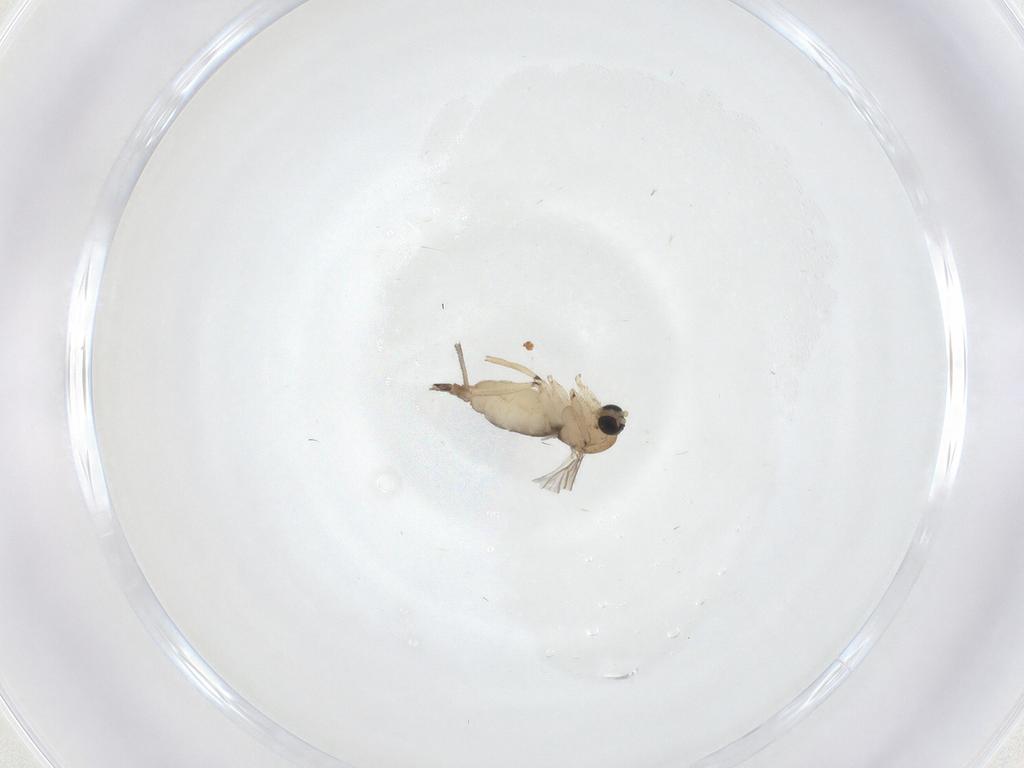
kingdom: Animalia
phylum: Arthropoda
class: Insecta
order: Diptera
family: Sciaridae
